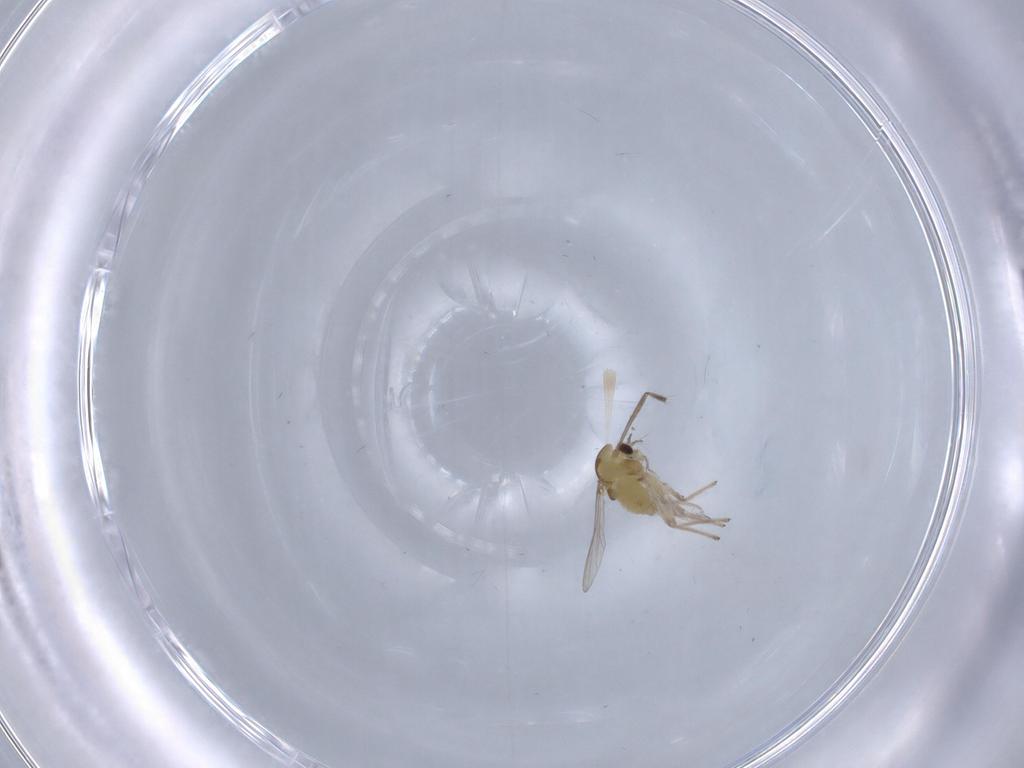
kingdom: Animalia
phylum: Arthropoda
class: Insecta
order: Diptera
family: Chironomidae
